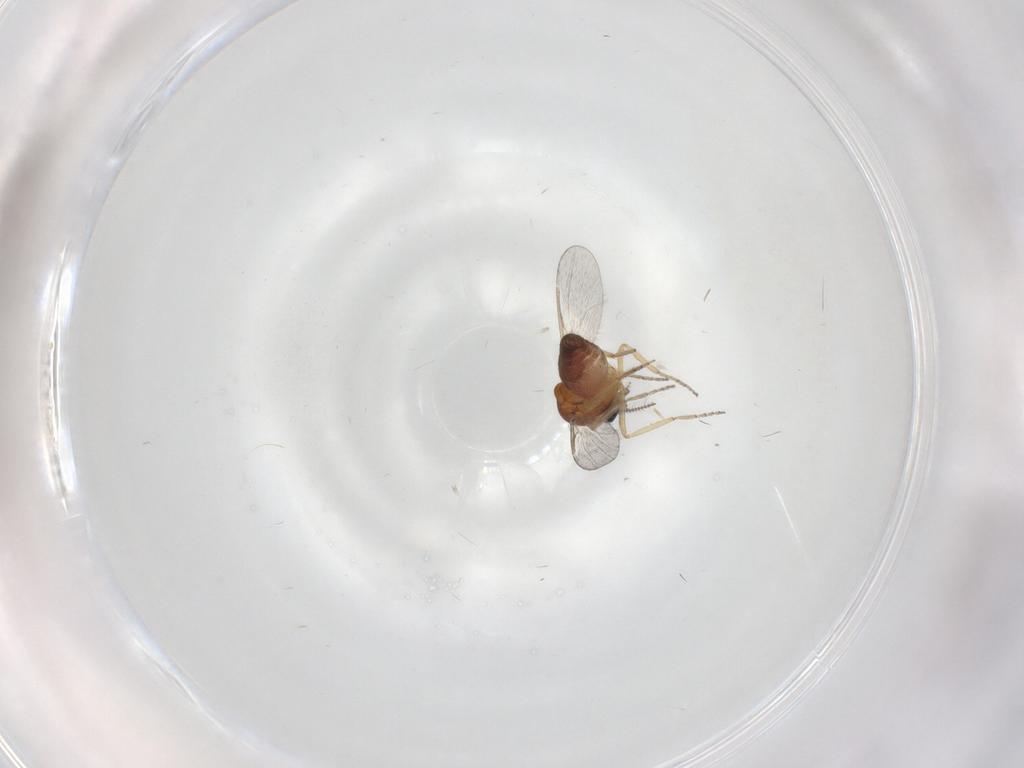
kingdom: Animalia
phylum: Arthropoda
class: Insecta
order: Diptera
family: Ceratopogonidae
